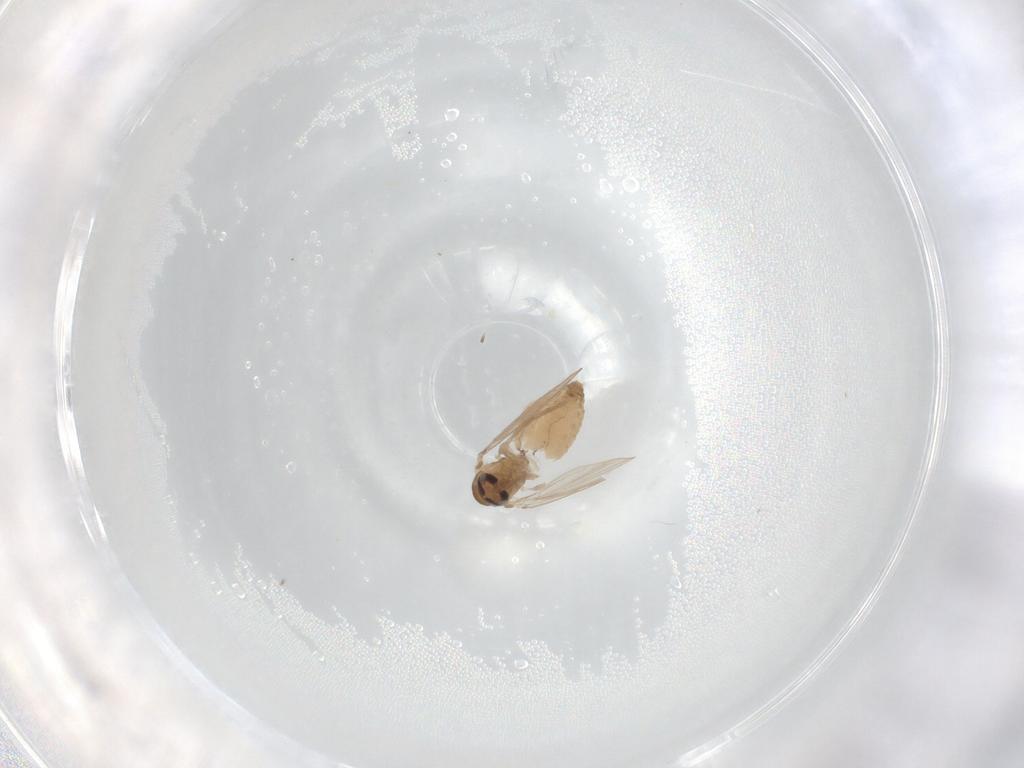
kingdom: Animalia
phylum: Arthropoda
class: Insecta
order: Diptera
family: Psychodidae
